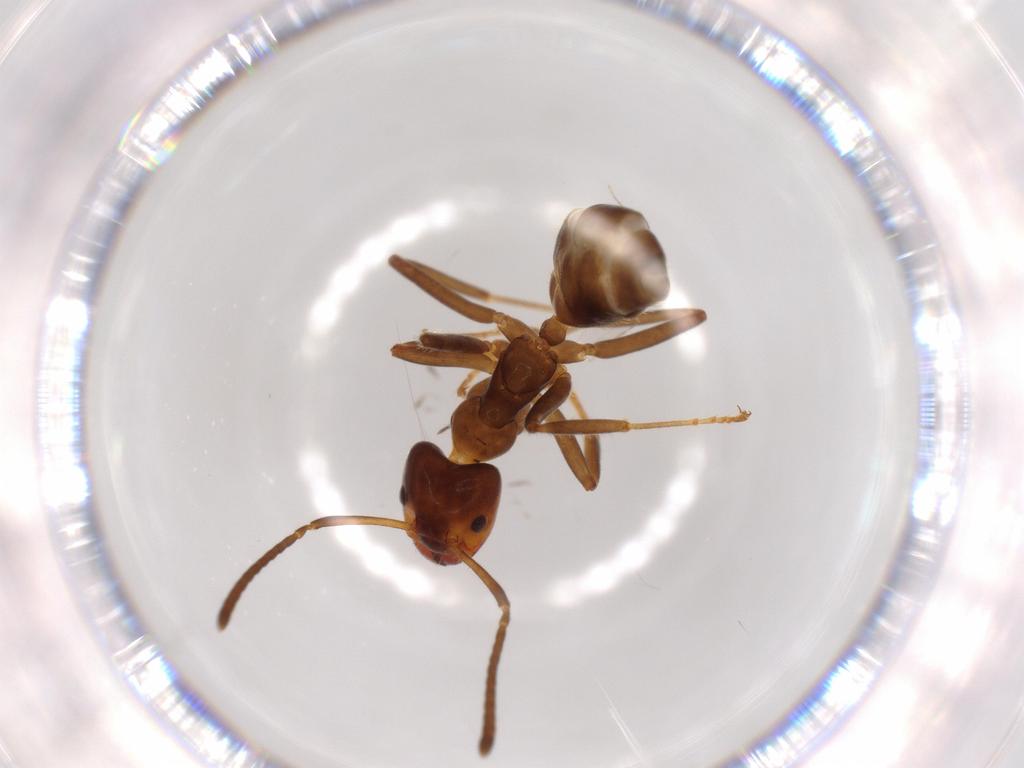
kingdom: Animalia
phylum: Arthropoda
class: Insecta
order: Hymenoptera
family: Formicidae
